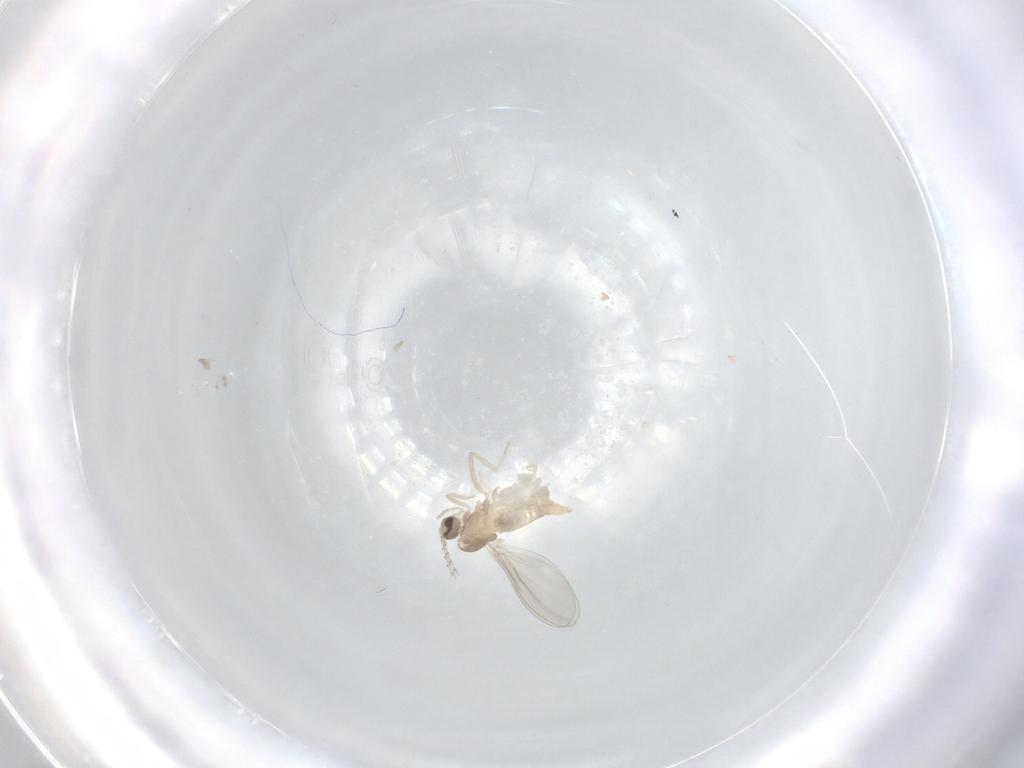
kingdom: Animalia
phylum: Arthropoda
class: Insecta
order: Diptera
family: Cecidomyiidae
